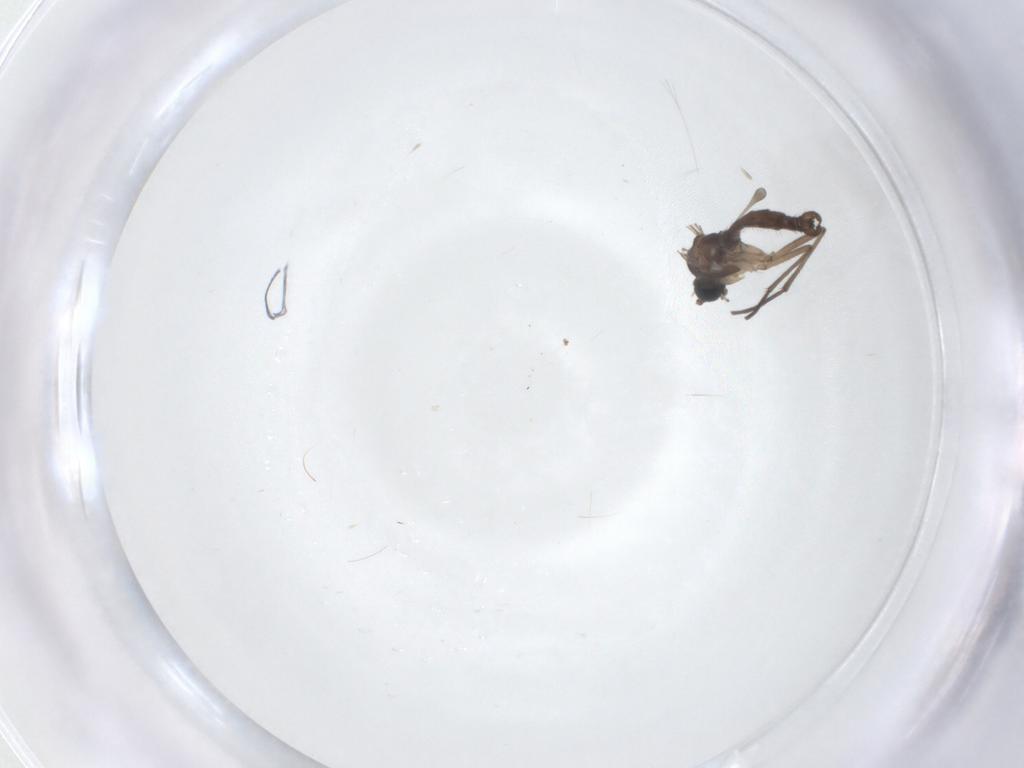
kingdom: Animalia
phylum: Arthropoda
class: Insecta
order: Diptera
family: Sciaridae
